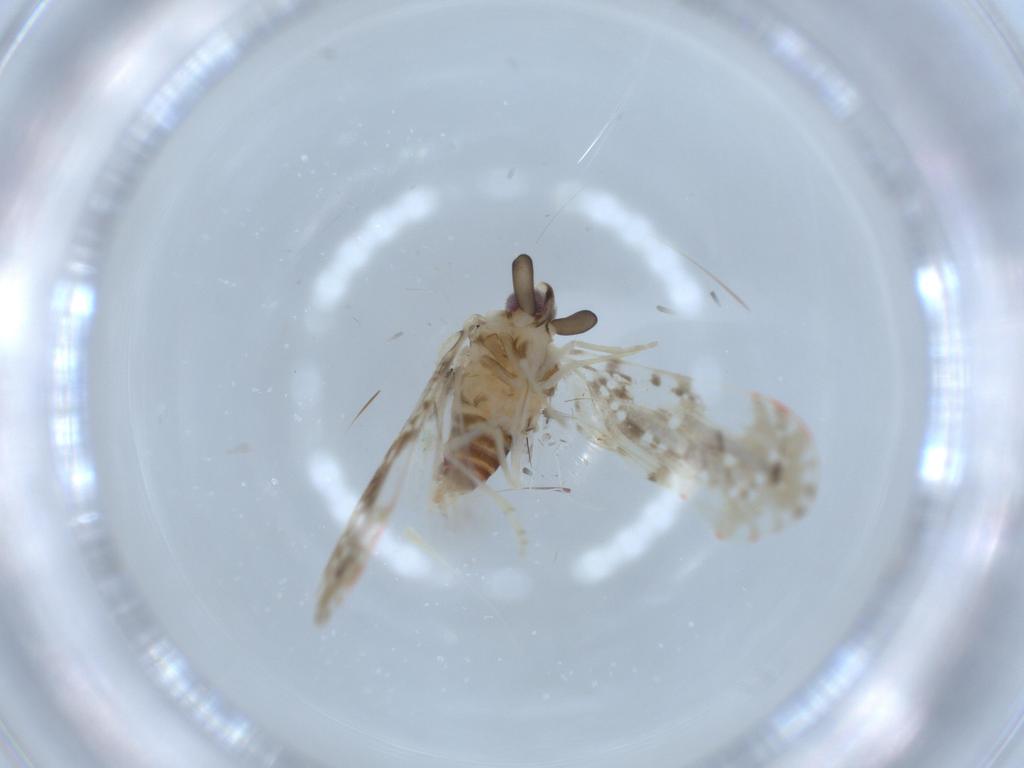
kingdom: Animalia
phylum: Arthropoda
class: Insecta
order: Hemiptera
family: Derbidae
